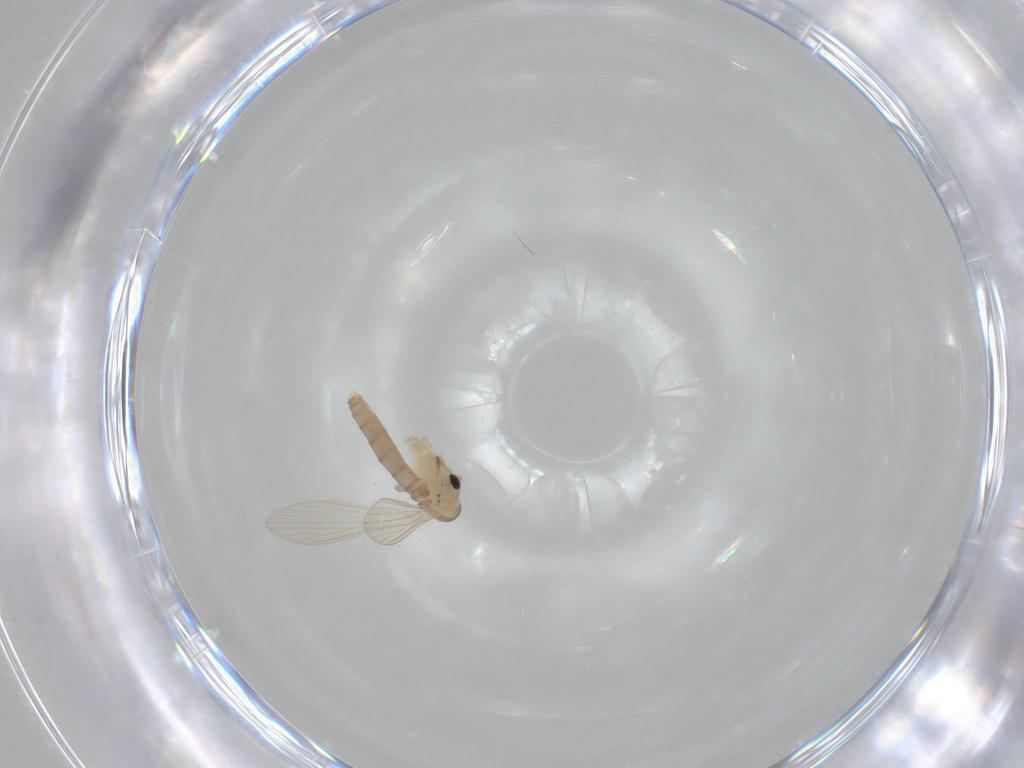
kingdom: Animalia
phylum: Arthropoda
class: Insecta
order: Diptera
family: Psychodidae
